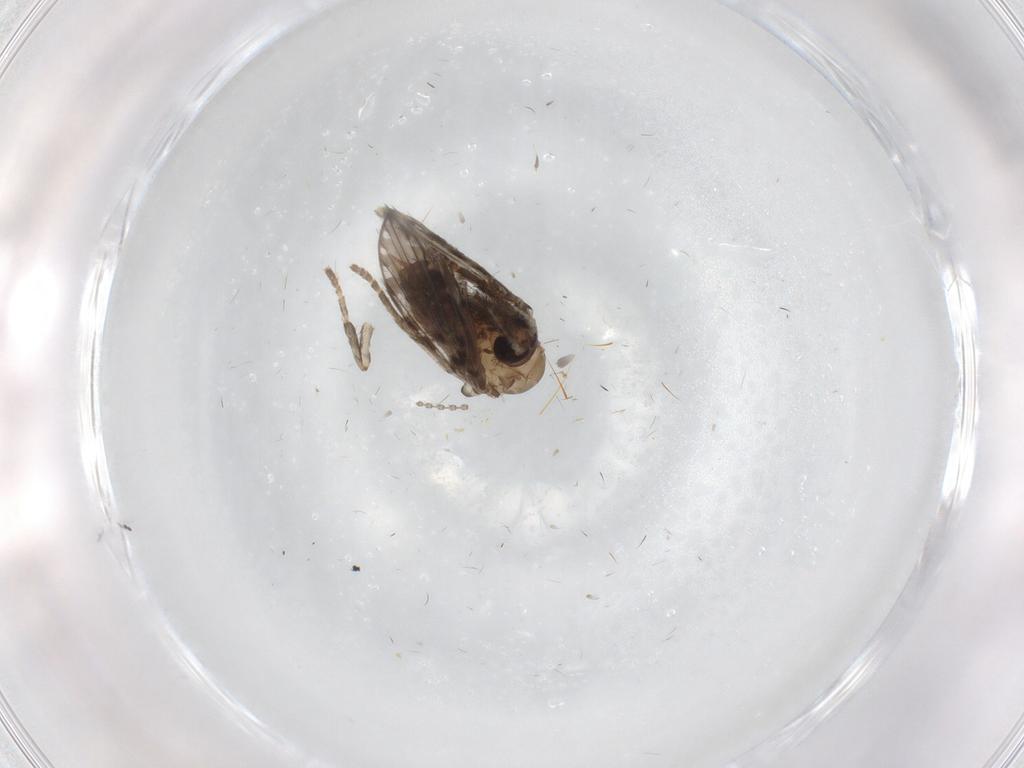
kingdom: Animalia
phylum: Arthropoda
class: Insecta
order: Diptera
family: Psychodidae
